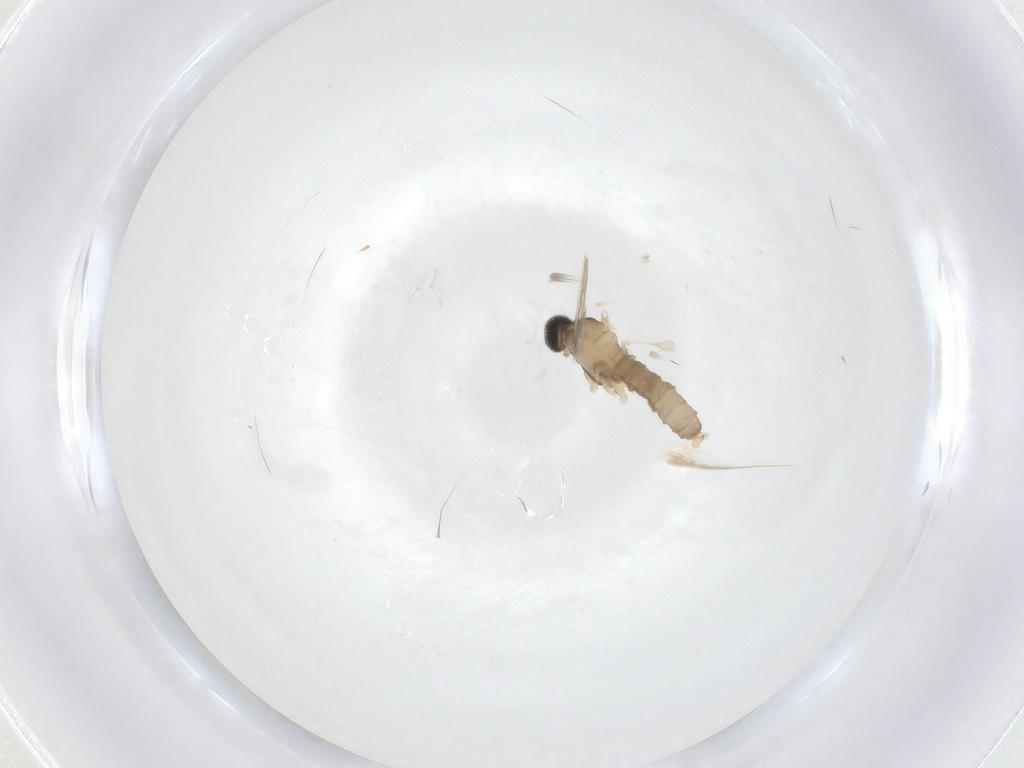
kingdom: Animalia
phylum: Arthropoda
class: Insecta
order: Diptera
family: Cecidomyiidae
